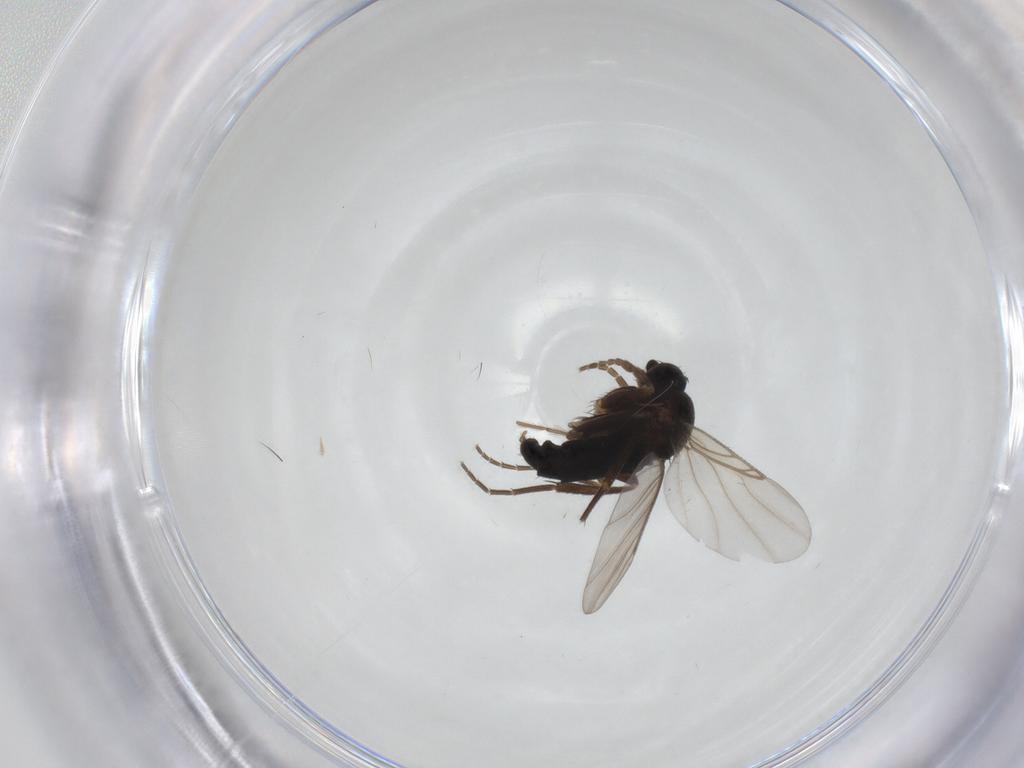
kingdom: Animalia
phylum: Arthropoda
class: Insecta
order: Diptera
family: Phoridae
